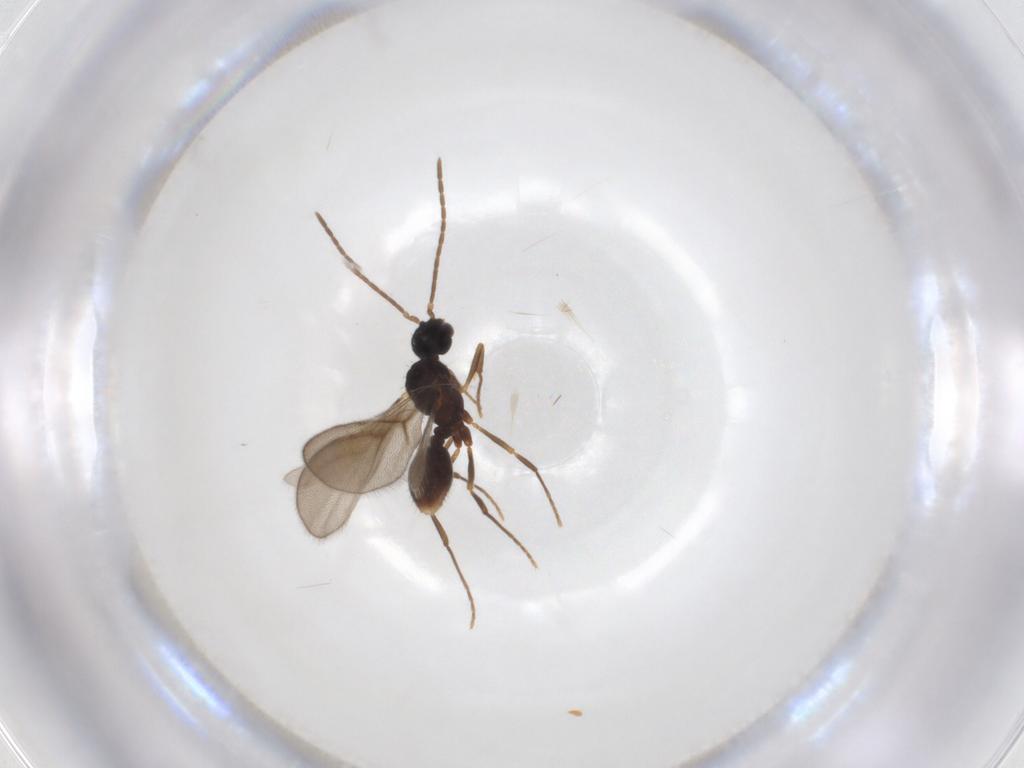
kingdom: Animalia
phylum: Arthropoda
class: Insecta
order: Hymenoptera
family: Formicidae
